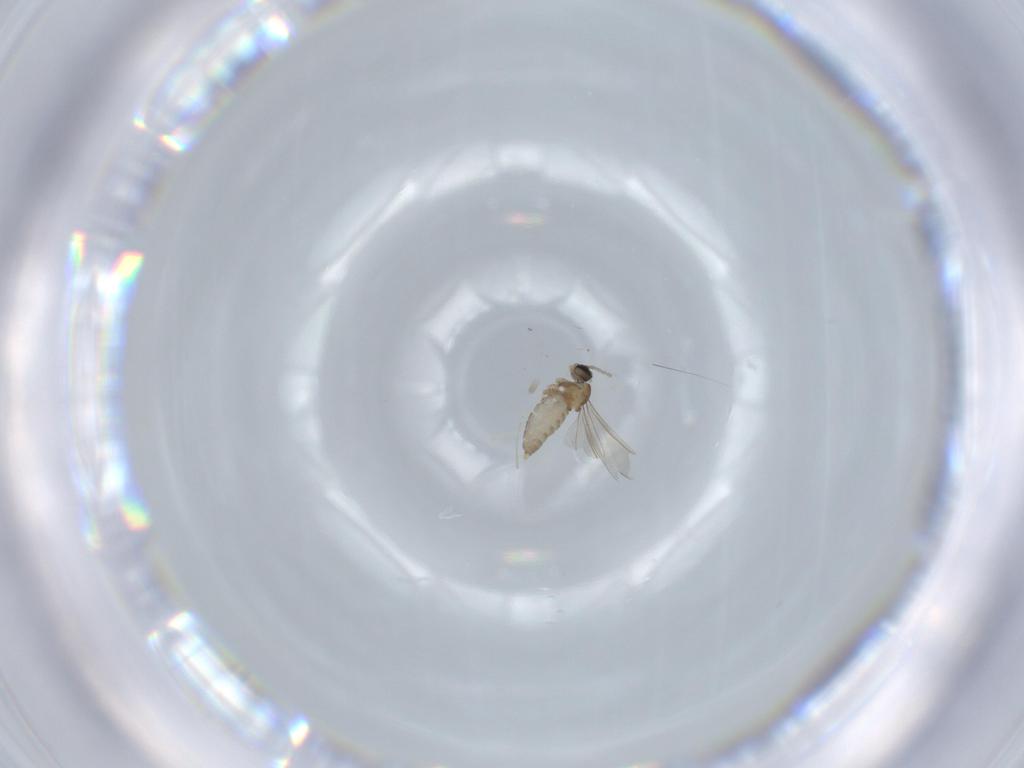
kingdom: Animalia
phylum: Arthropoda
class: Insecta
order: Diptera
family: Cecidomyiidae
